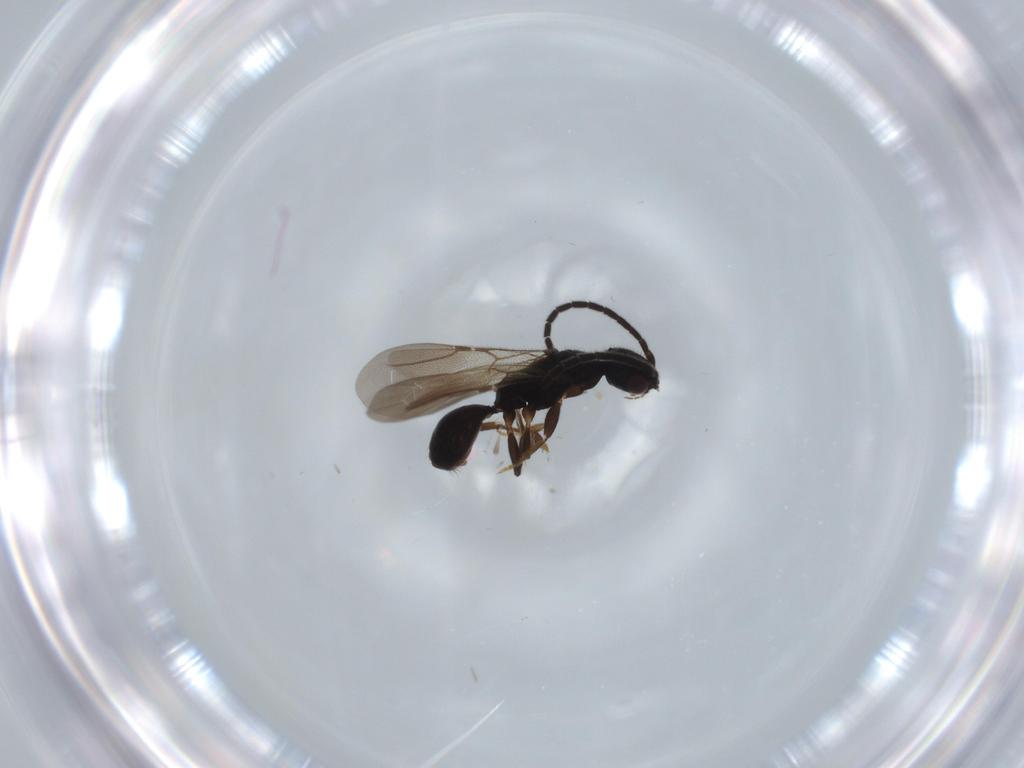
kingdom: Animalia
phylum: Arthropoda
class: Insecta
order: Hymenoptera
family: Bethylidae
